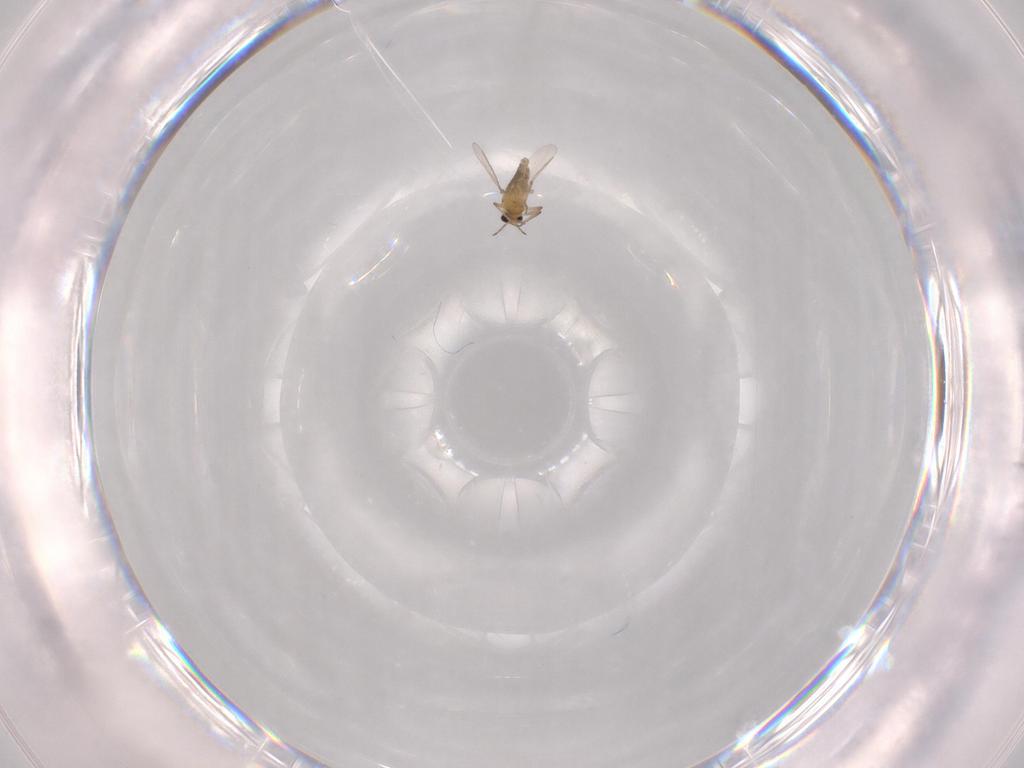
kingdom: Animalia
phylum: Arthropoda
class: Insecta
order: Diptera
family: Chironomidae
